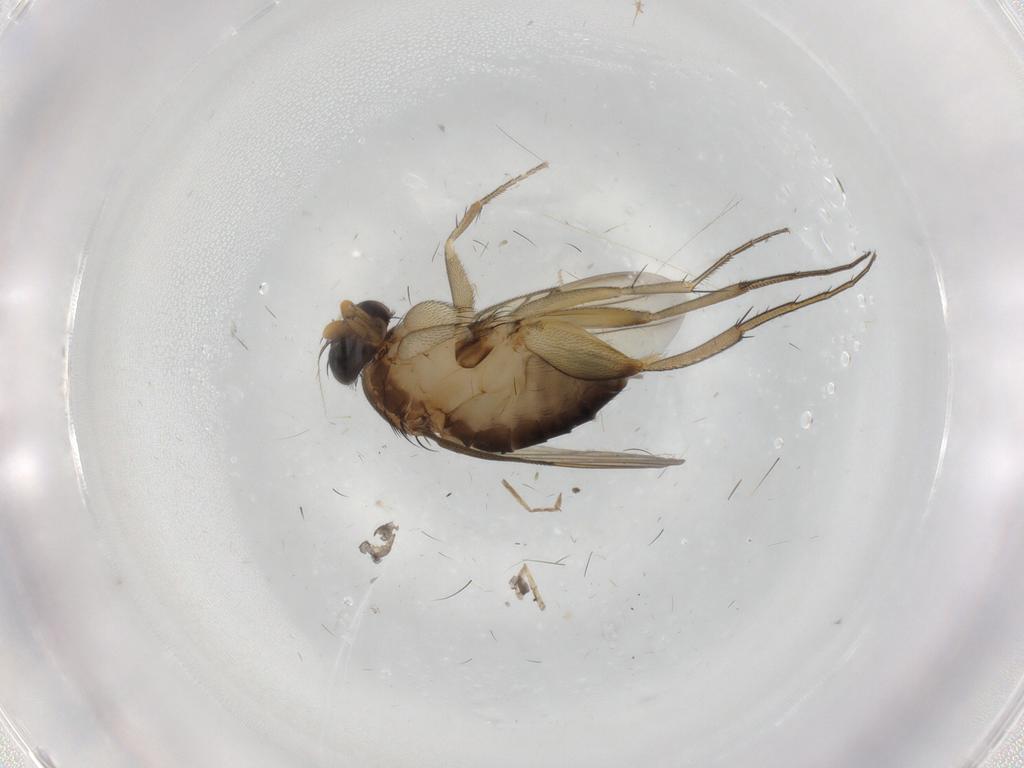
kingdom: Animalia
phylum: Arthropoda
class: Insecta
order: Diptera
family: Phoridae
